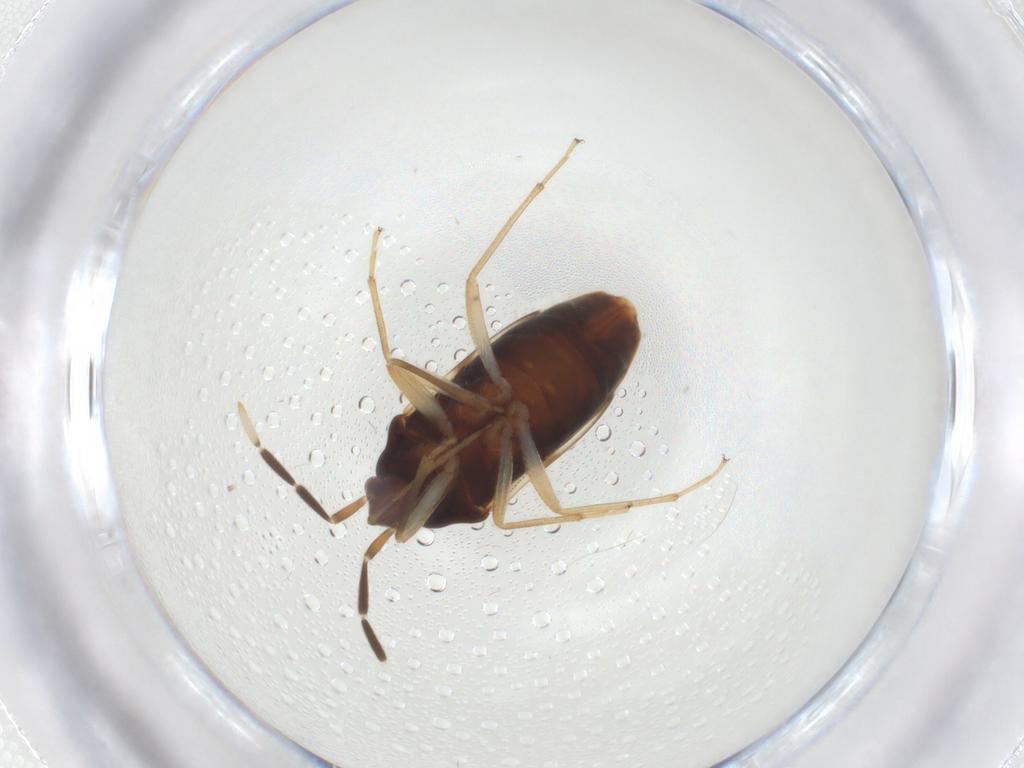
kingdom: Animalia
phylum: Arthropoda
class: Insecta
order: Hemiptera
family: Rhyparochromidae
